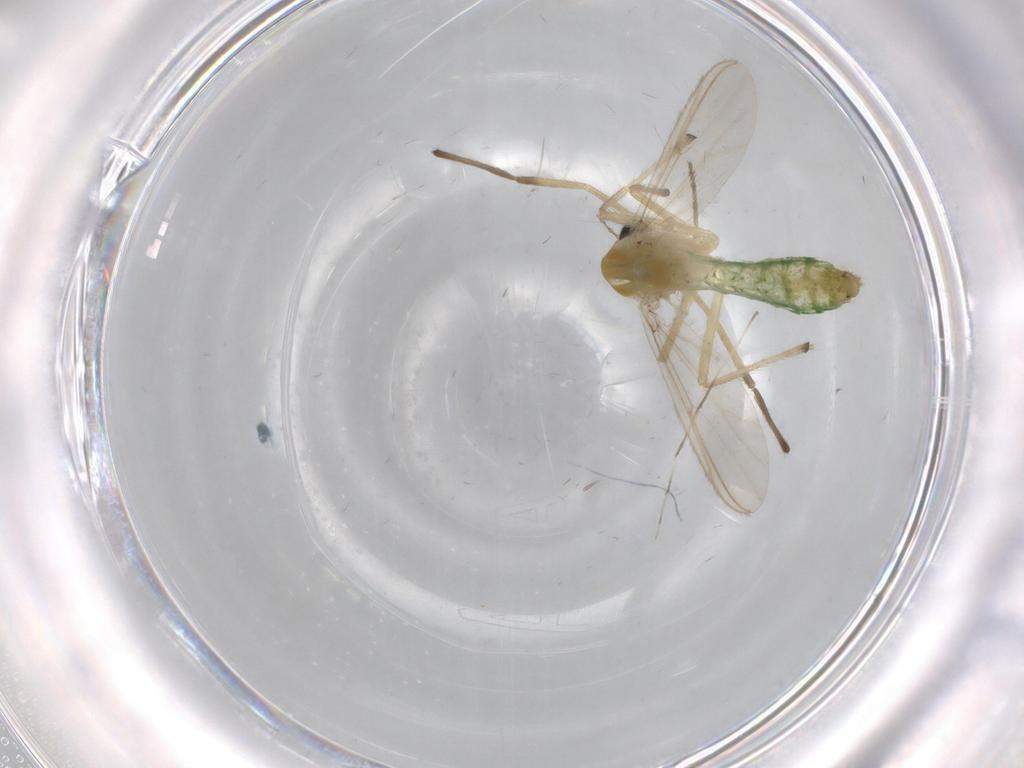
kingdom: Animalia
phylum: Arthropoda
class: Insecta
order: Diptera
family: Chironomidae
